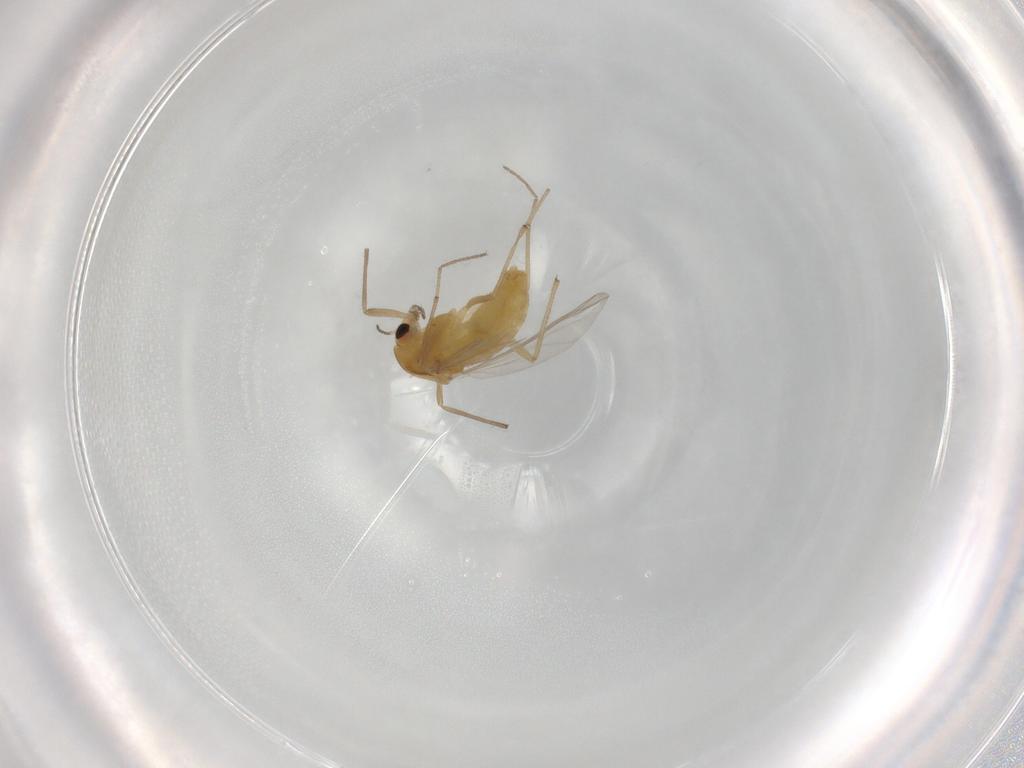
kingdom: Animalia
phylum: Arthropoda
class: Insecta
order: Diptera
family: Chironomidae
